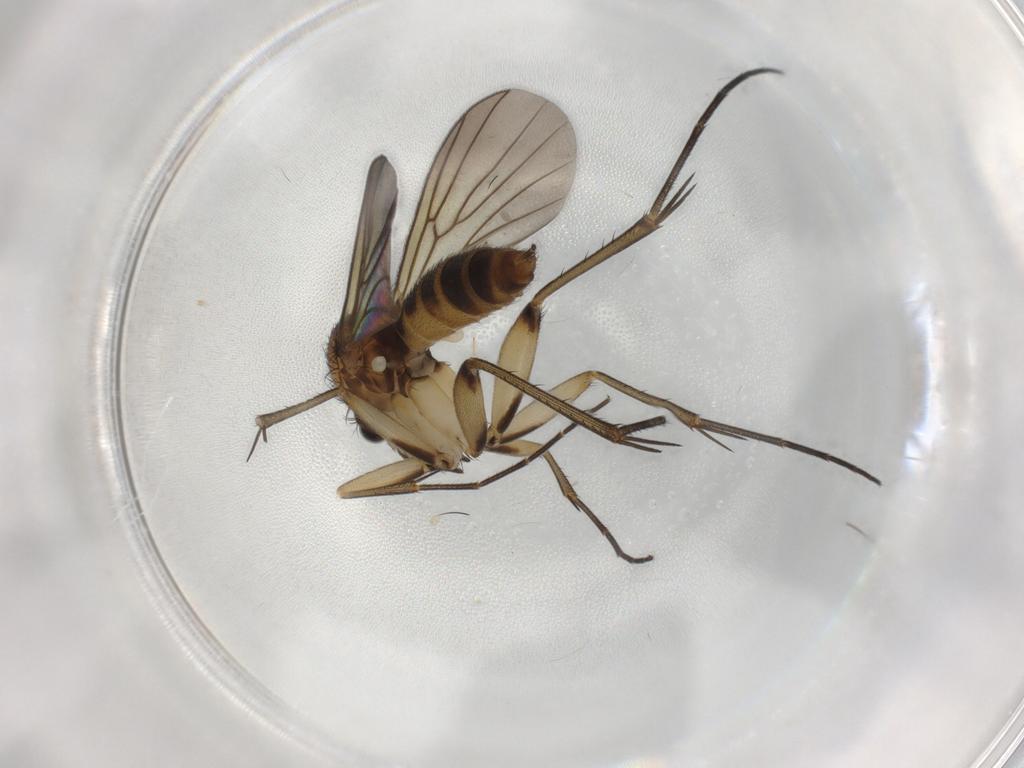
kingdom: Animalia
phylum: Arthropoda
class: Insecta
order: Diptera
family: Mycetophilidae
